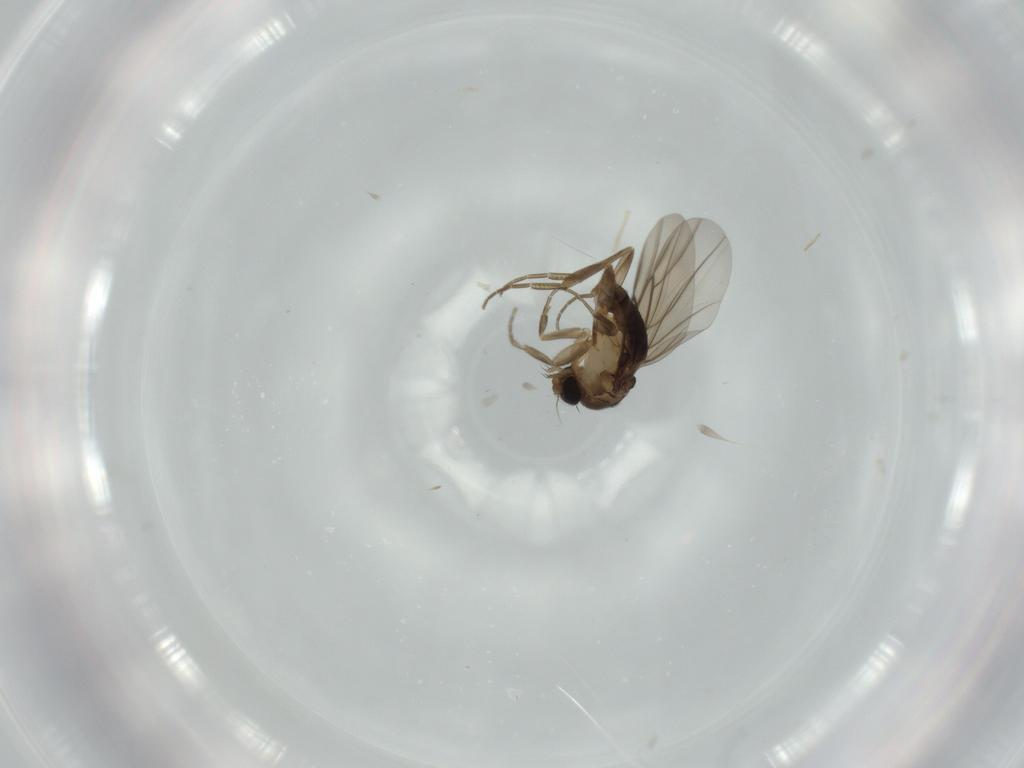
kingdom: Animalia
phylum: Arthropoda
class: Insecta
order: Diptera
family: Phoridae
